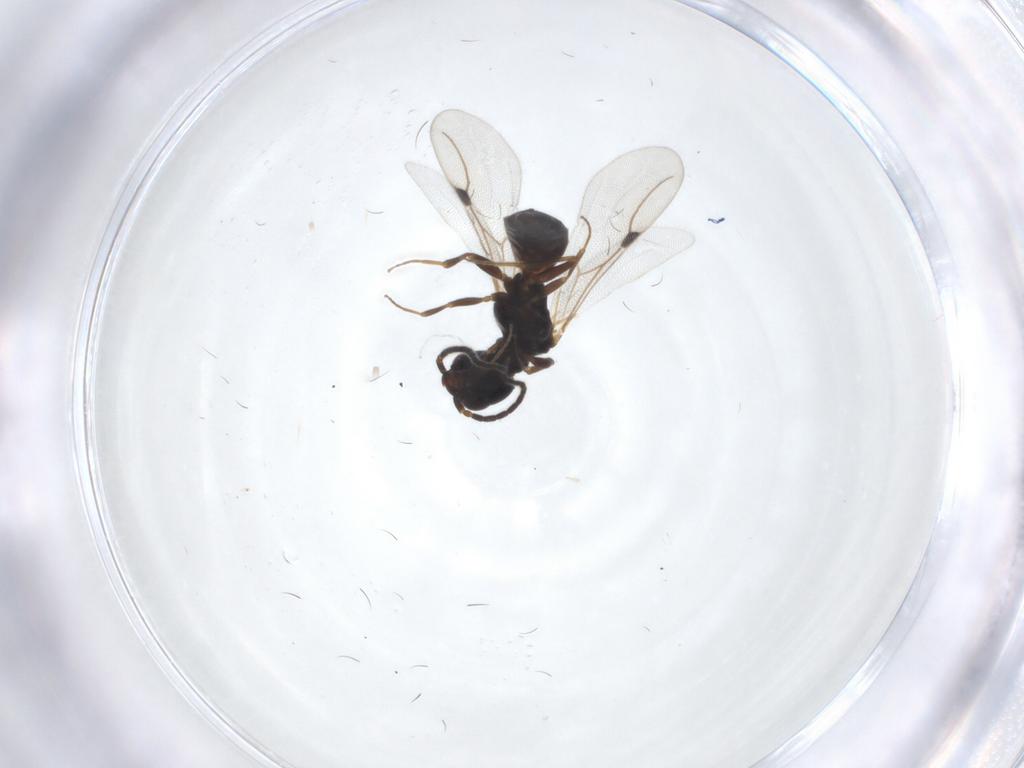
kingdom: Animalia
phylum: Arthropoda
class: Insecta
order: Hymenoptera
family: Bethylidae
